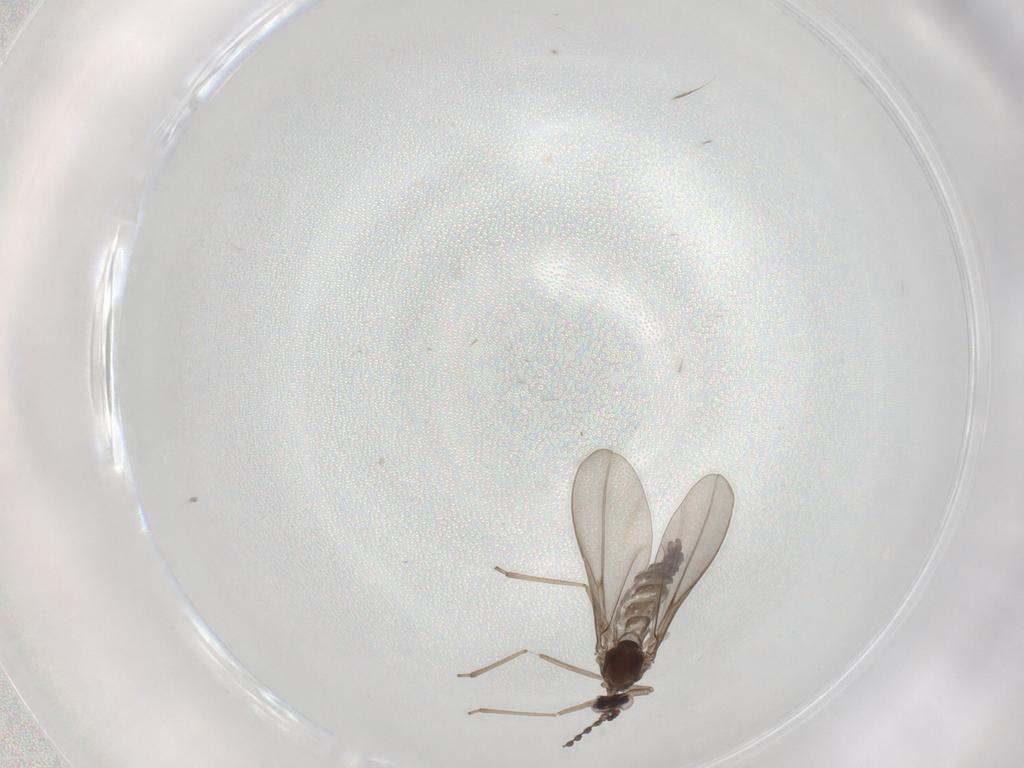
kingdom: Animalia
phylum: Arthropoda
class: Insecta
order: Diptera
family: Cecidomyiidae
